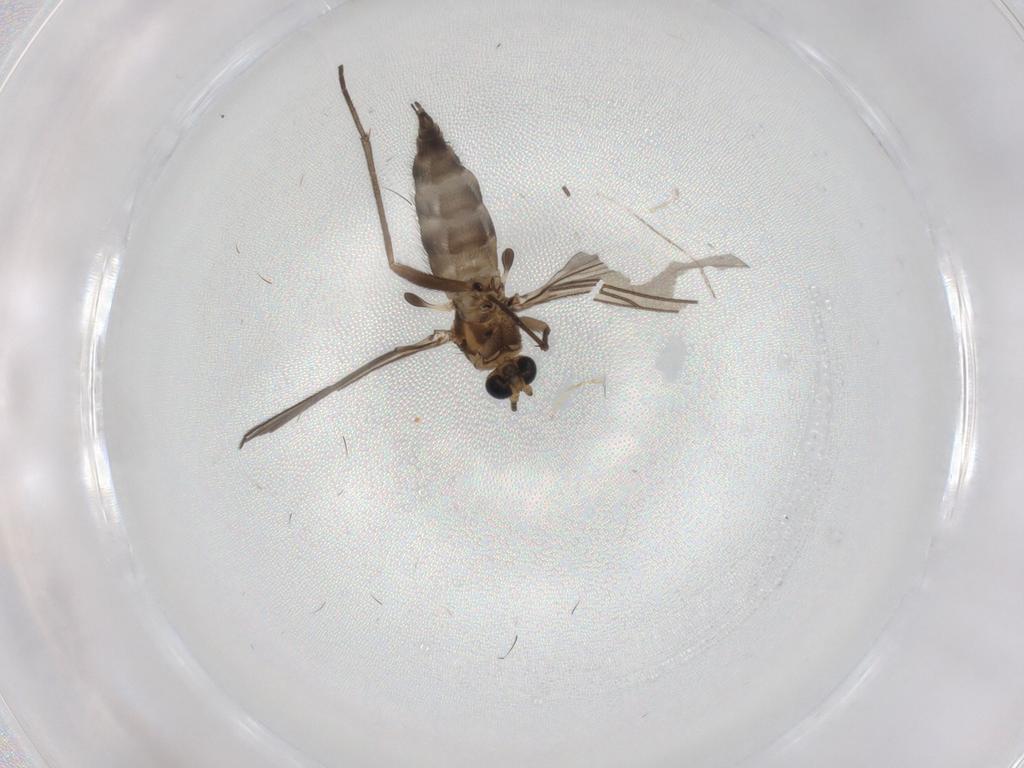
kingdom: Animalia
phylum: Arthropoda
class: Insecta
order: Diptera
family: Sciaridae
